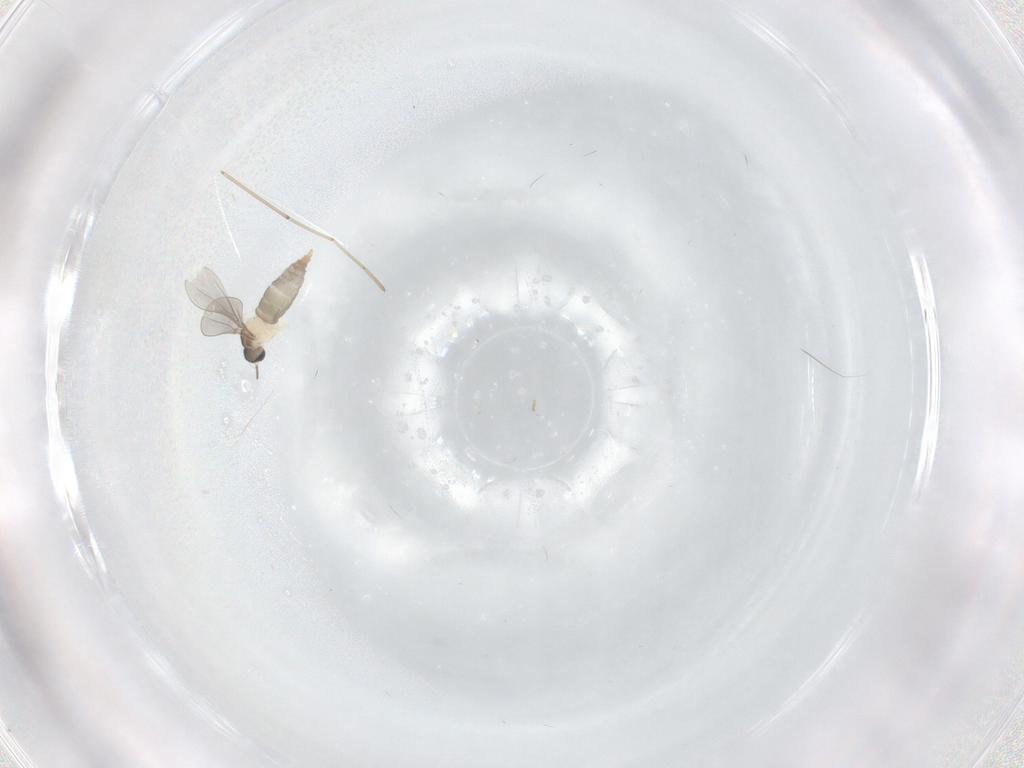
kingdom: Animalia
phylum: Arthropoda
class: Insecta
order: Diptera
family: Cecidomyiidae
